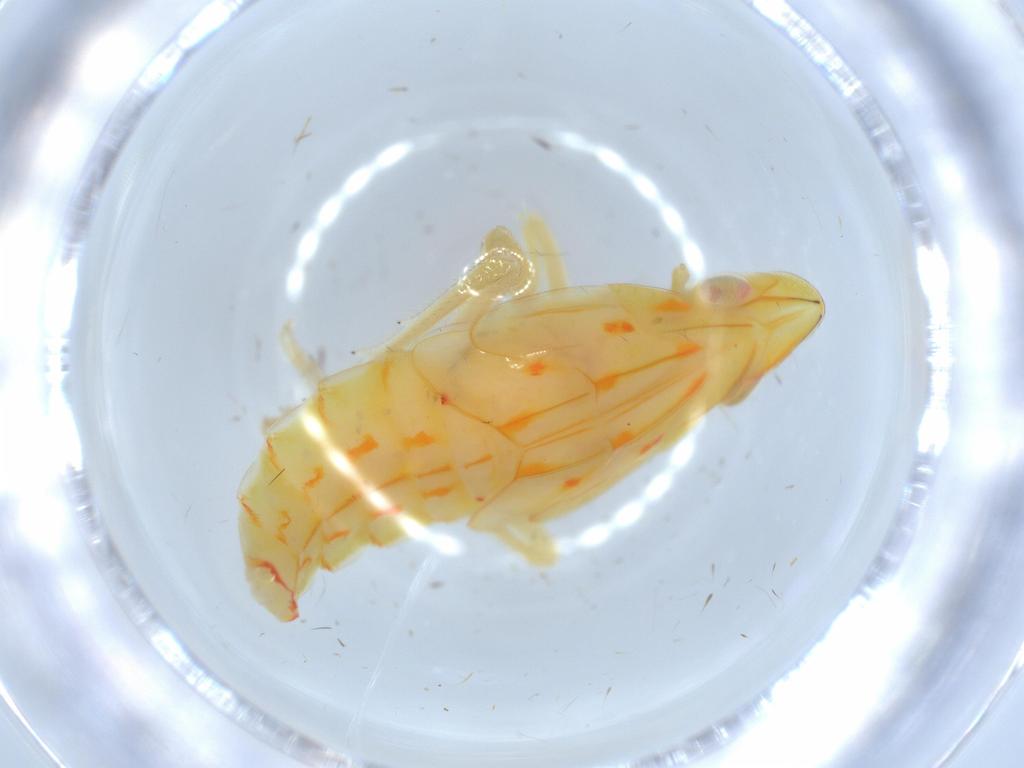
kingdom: Animalia
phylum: Arthropoda
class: Insecta
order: Hemiptera
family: Tropiduchidae
